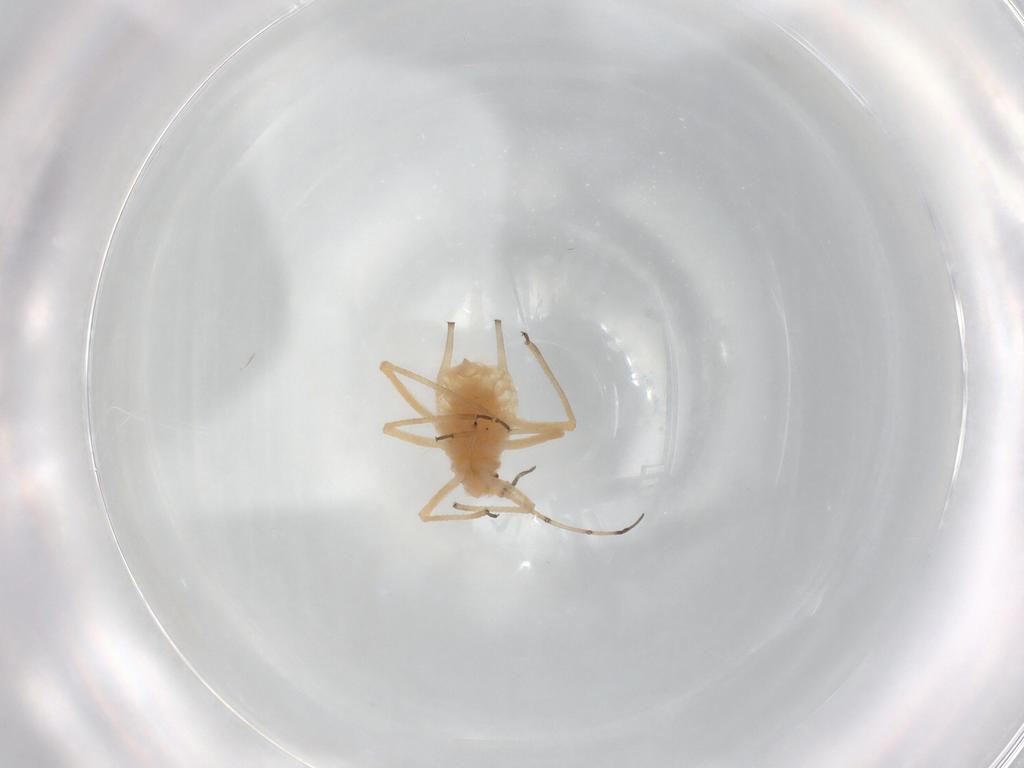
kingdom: Animalia
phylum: Arthropoda
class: Insecta
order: Hemiptera
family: Aphididae
